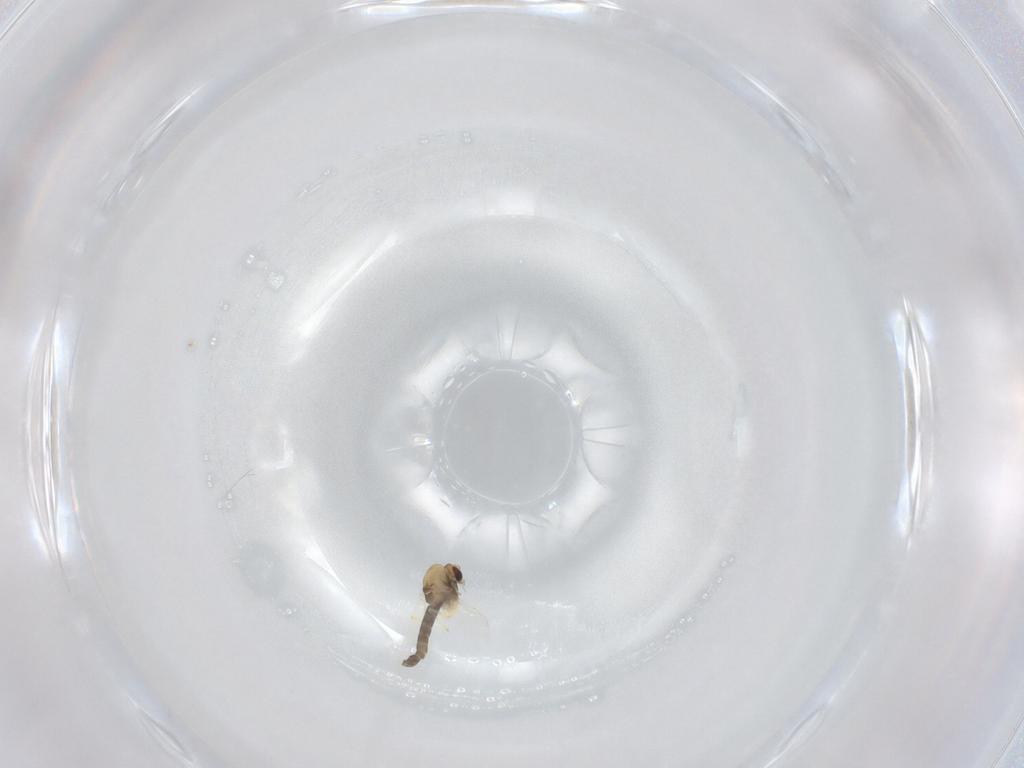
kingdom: Animalia
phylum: Arthropoda
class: Insecta
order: Diptera
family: Chironomidae
